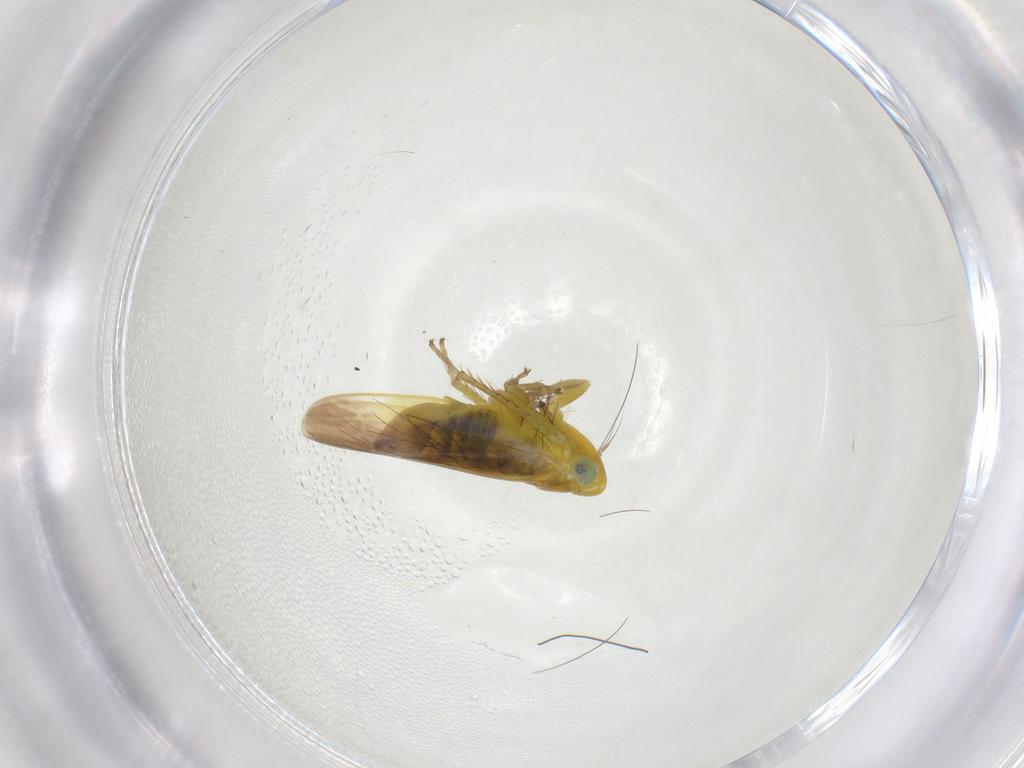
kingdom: Animalia
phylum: Arthropoda
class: Insecta
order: Hemiptera
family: Cicadellidae
